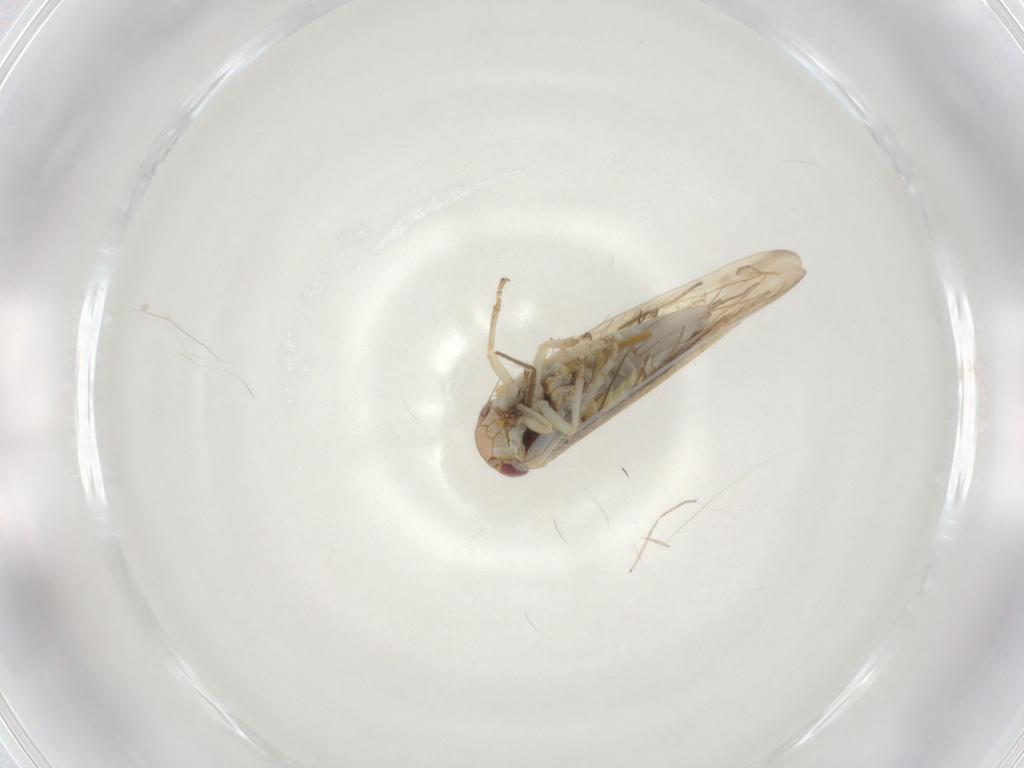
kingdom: Animalia
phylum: Arthropoda
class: Insecta
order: Hemiptera
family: Cicadellidae
